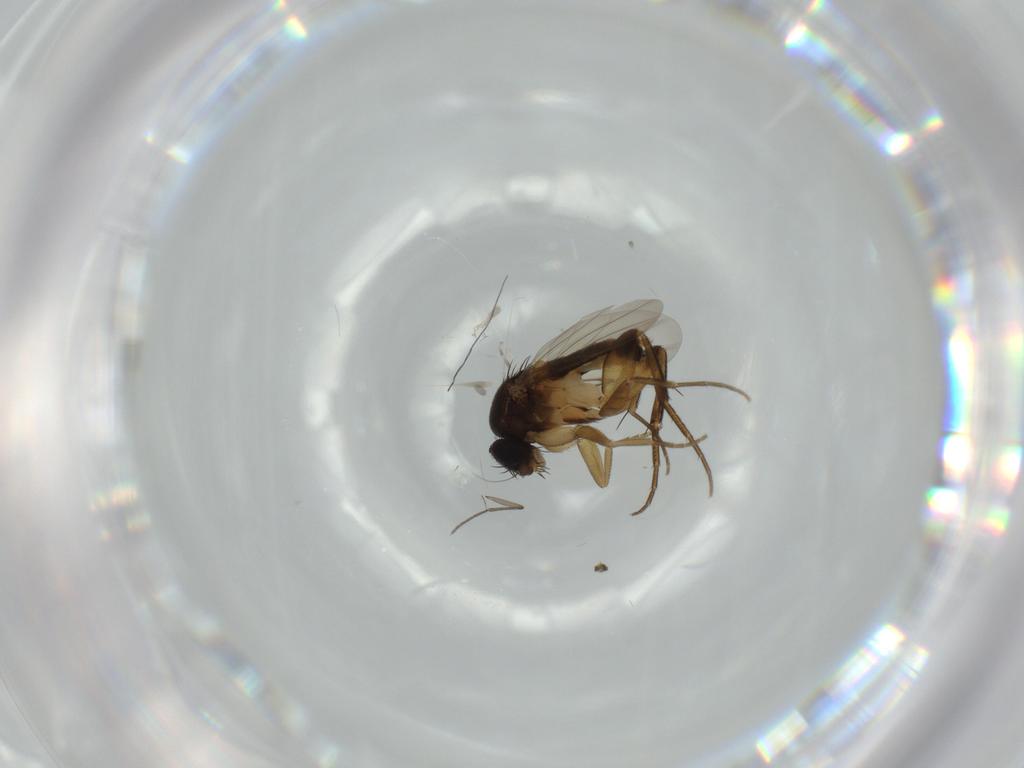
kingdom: Animalia
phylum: Arthropoda
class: Insecta
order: Diptera
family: Phoridae
